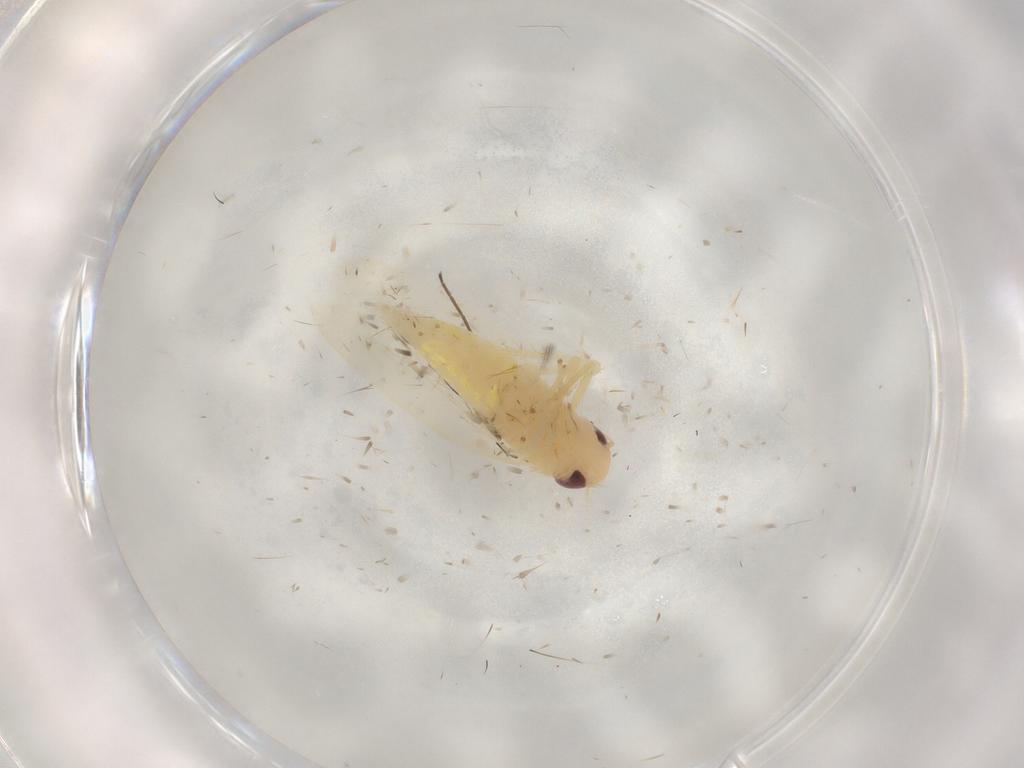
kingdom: Animalia
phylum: Arthropoda
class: Insecta
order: Hemiptera
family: Cicadellidae
